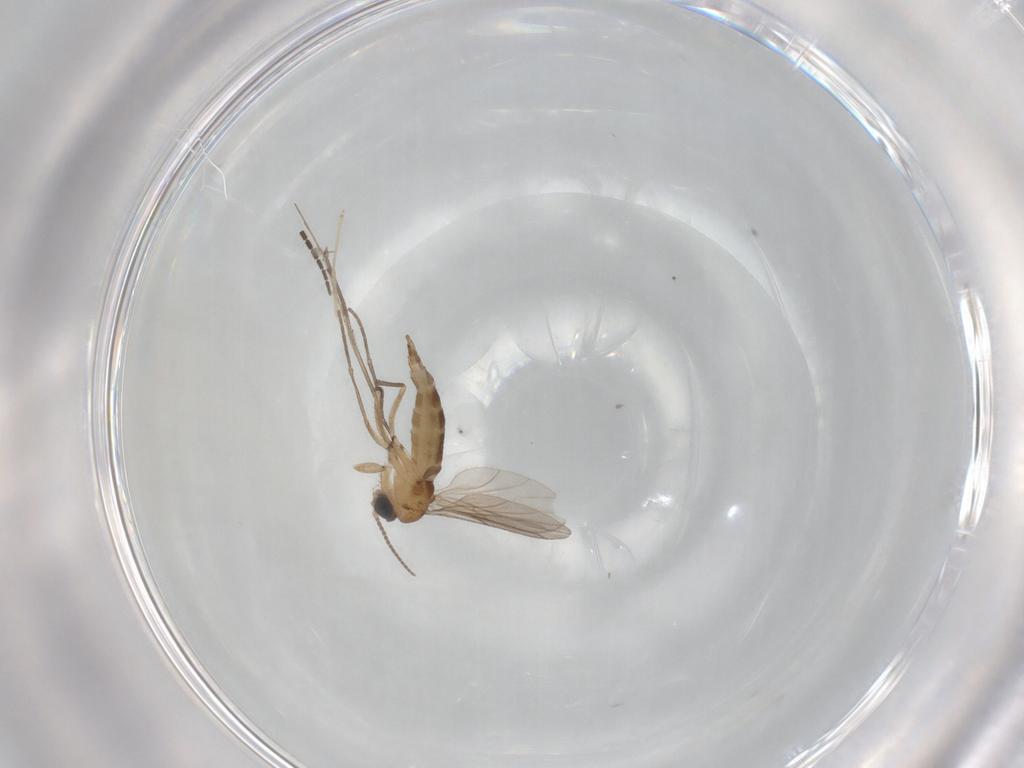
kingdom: Animalia
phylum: Arthropoda
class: Insecta
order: Diptera
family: Sciaridae
